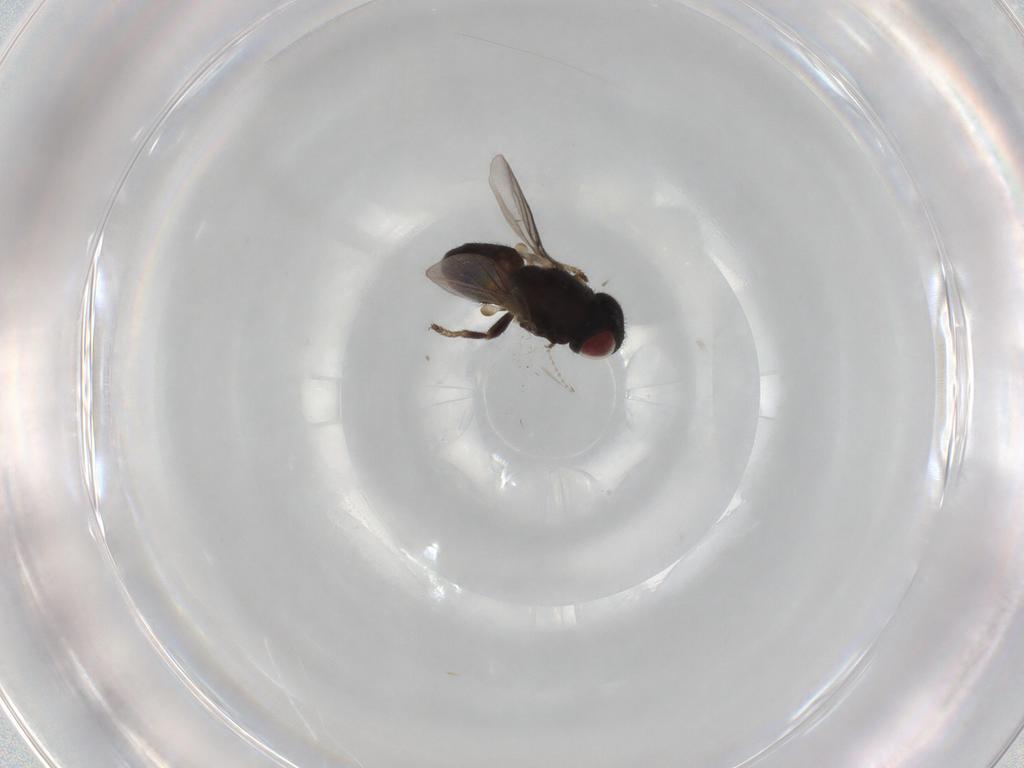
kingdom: Animalia
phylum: Arthropoda
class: Insecta
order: Diptera
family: Chloropidae
